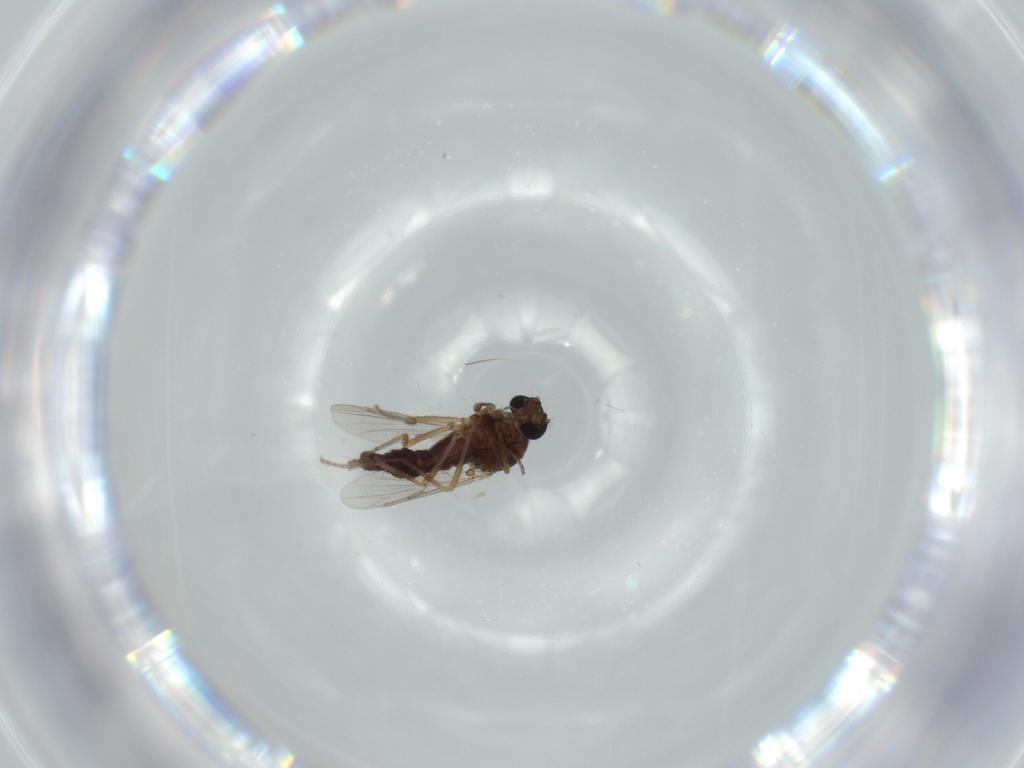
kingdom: Animalia
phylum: Arthropoda
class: Insecta
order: Diptera
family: Ceratopogonidae
